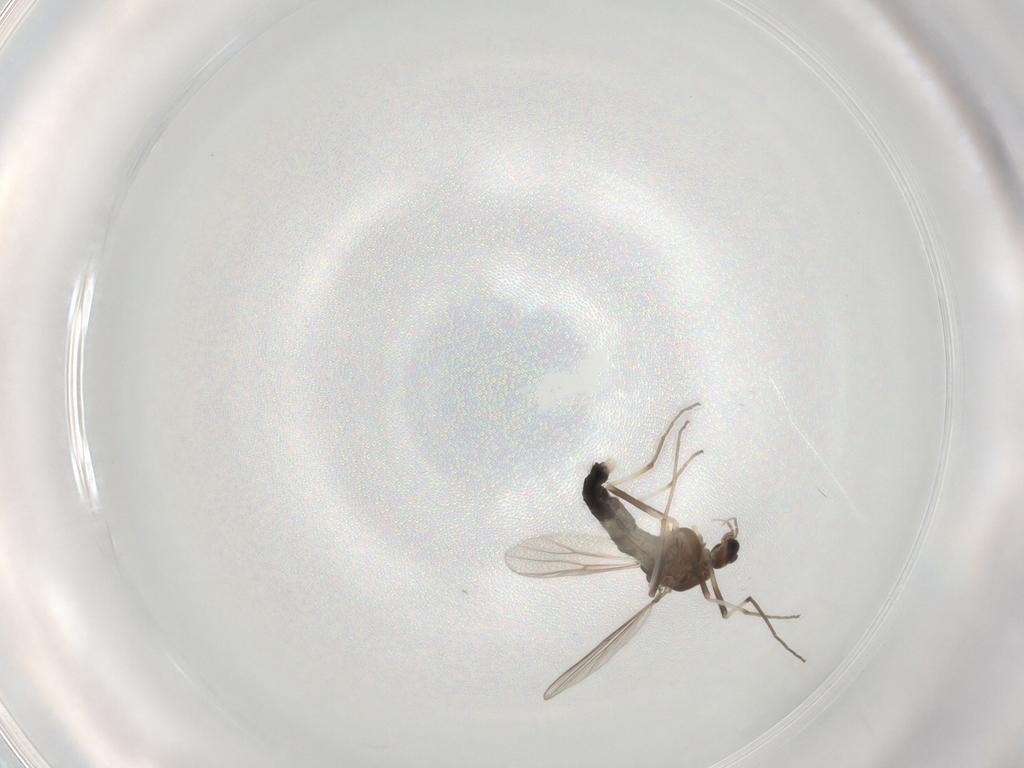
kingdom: Animalia
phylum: Arthropoda
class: Insecta
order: Diptera
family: Chironomidae
